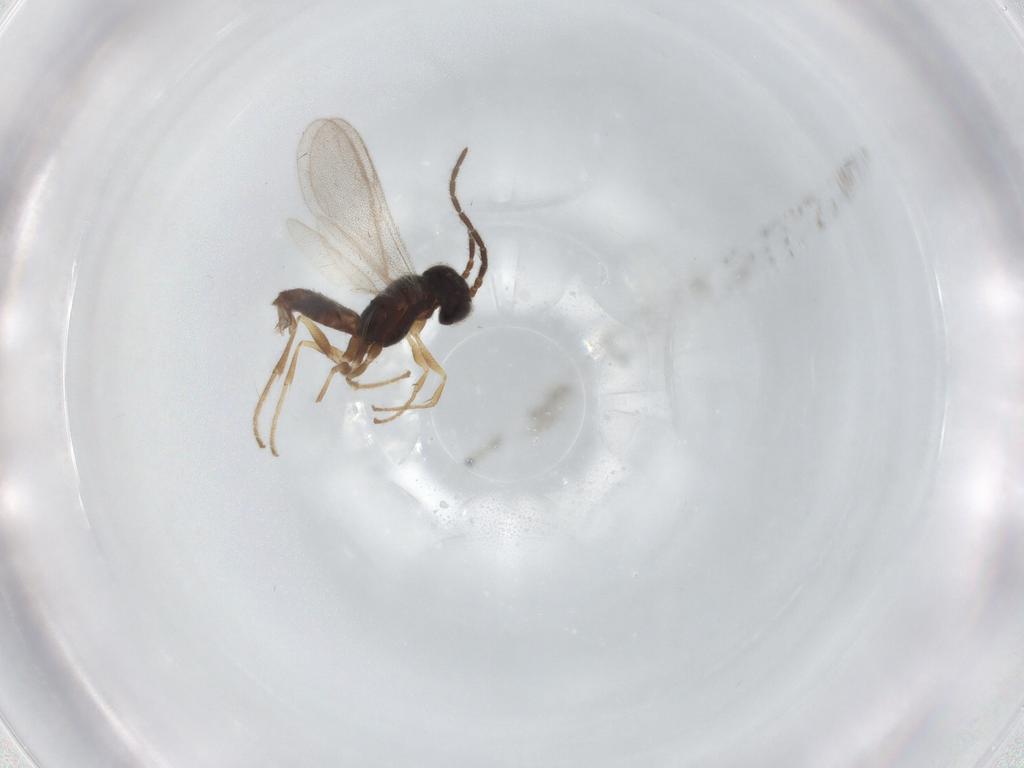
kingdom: Animalia
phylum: Arthropoda
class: Insecta
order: Hymenoptera
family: Dryinidae
